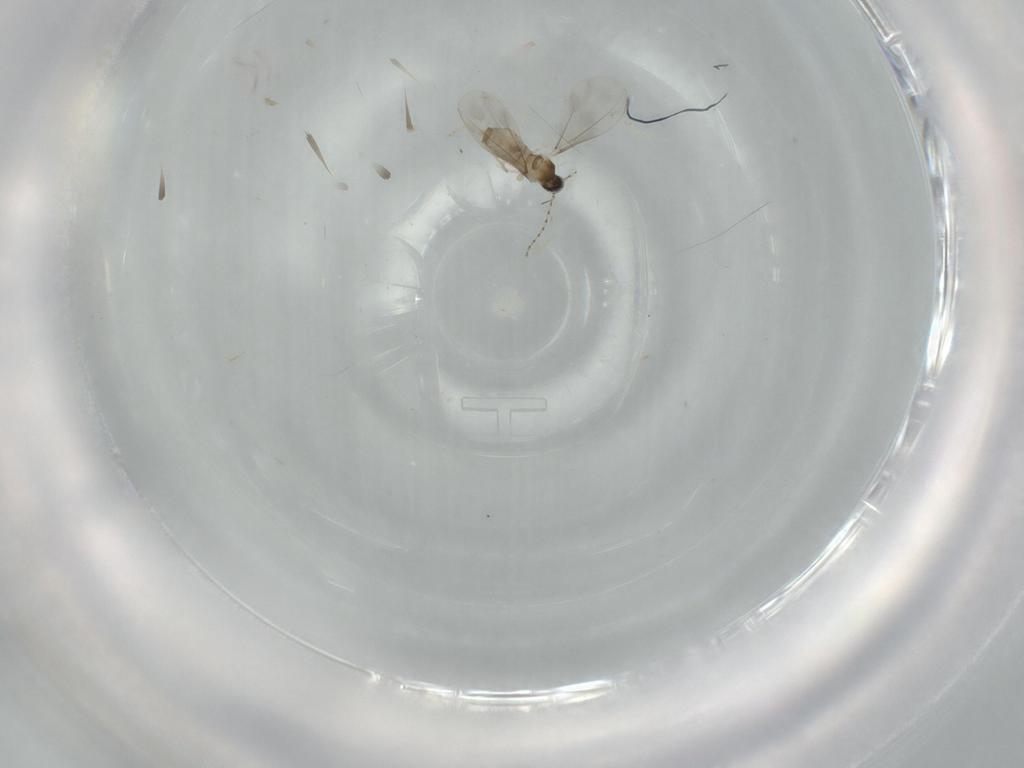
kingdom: Animalia
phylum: Arthropoda
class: Insecta
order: Diptera
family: Cecidomyiidae
